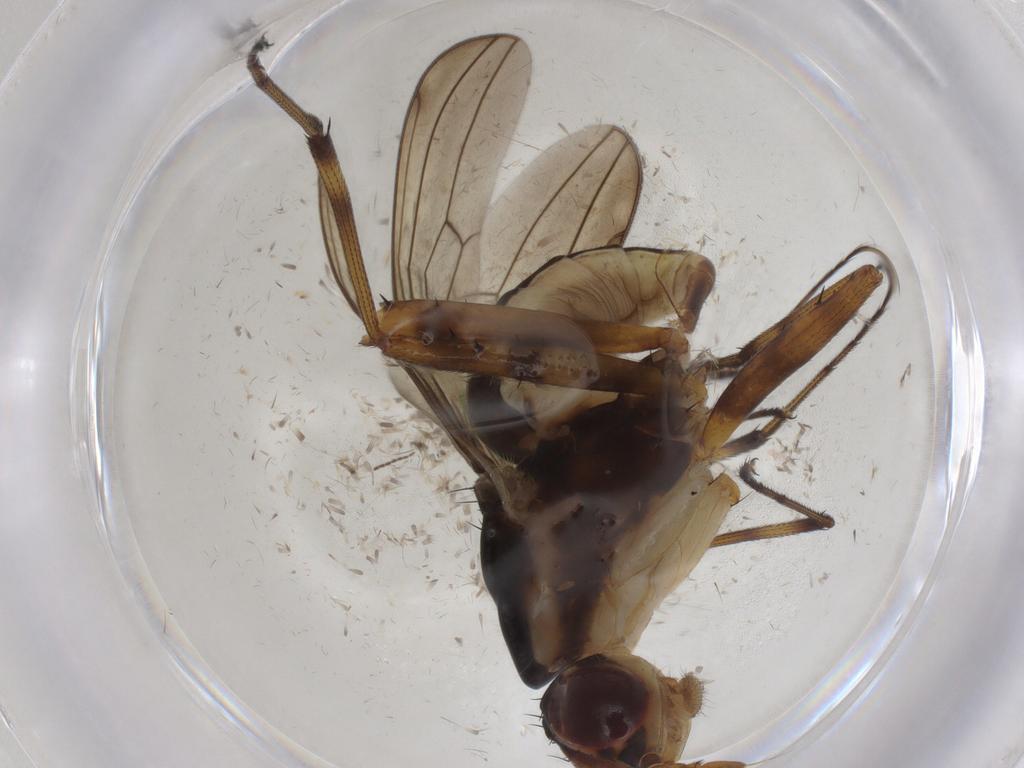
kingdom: Animalia
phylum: Arthropoda
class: Insecta
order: Diptera
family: Neriidae
